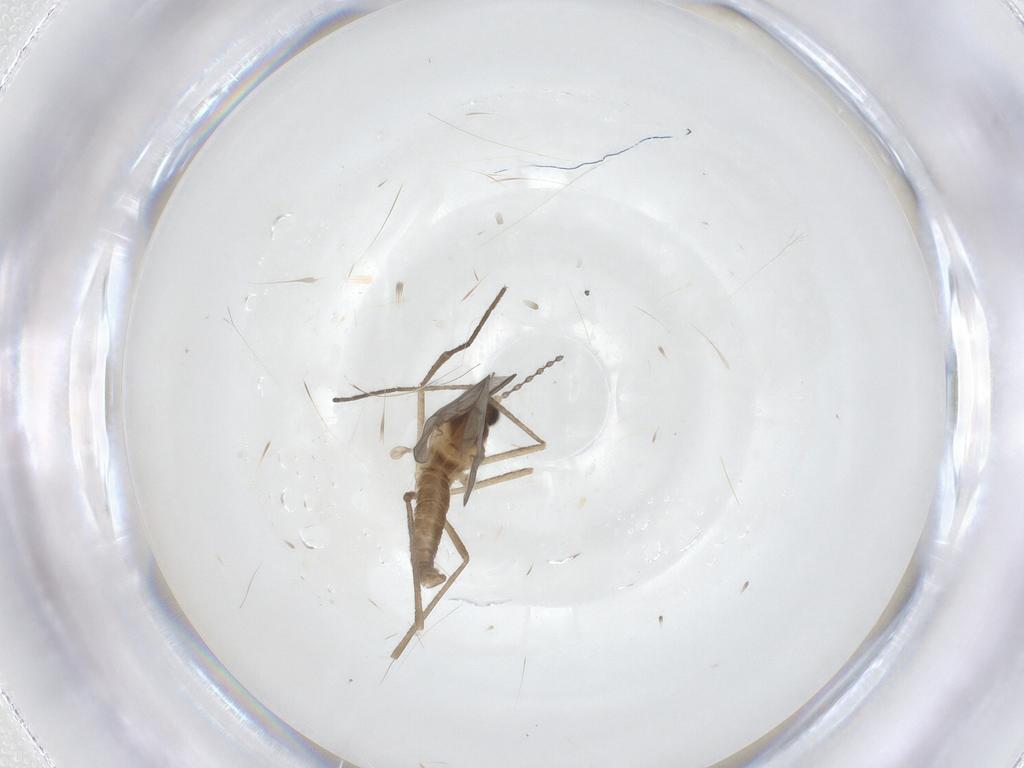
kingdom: Animalia
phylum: Arthropoda
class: Insecta
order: Diptera
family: Cecidomyiidae
